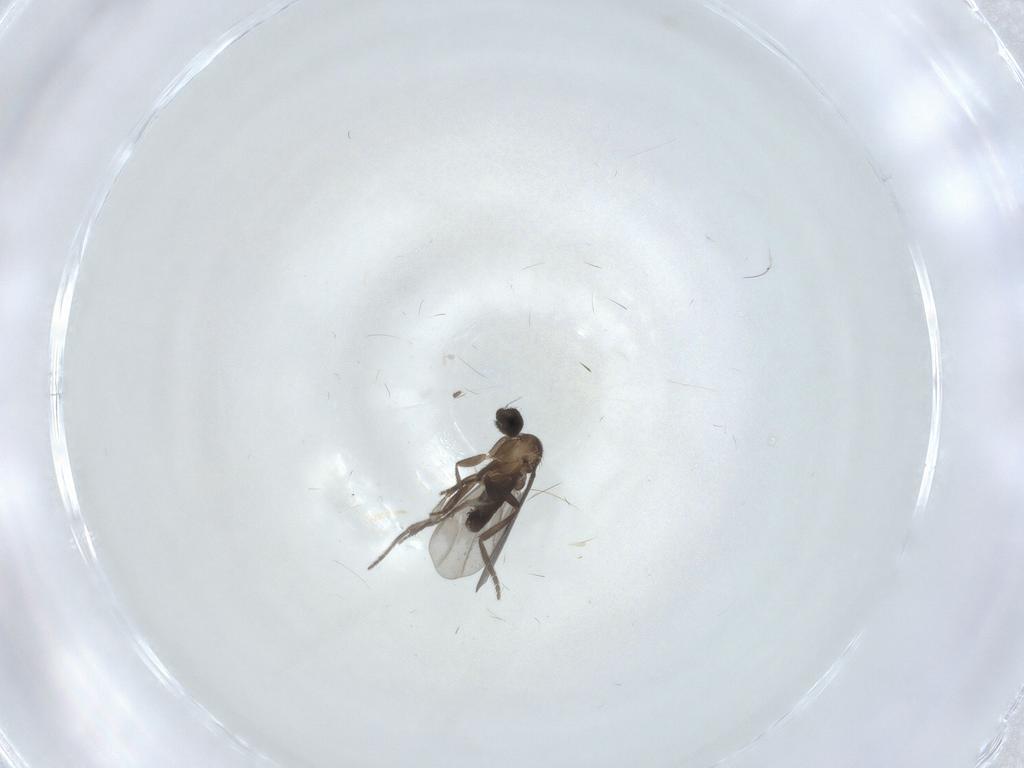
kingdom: Animalia
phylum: Arthropoda
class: Insecta
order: Diptera
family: Phoridae
